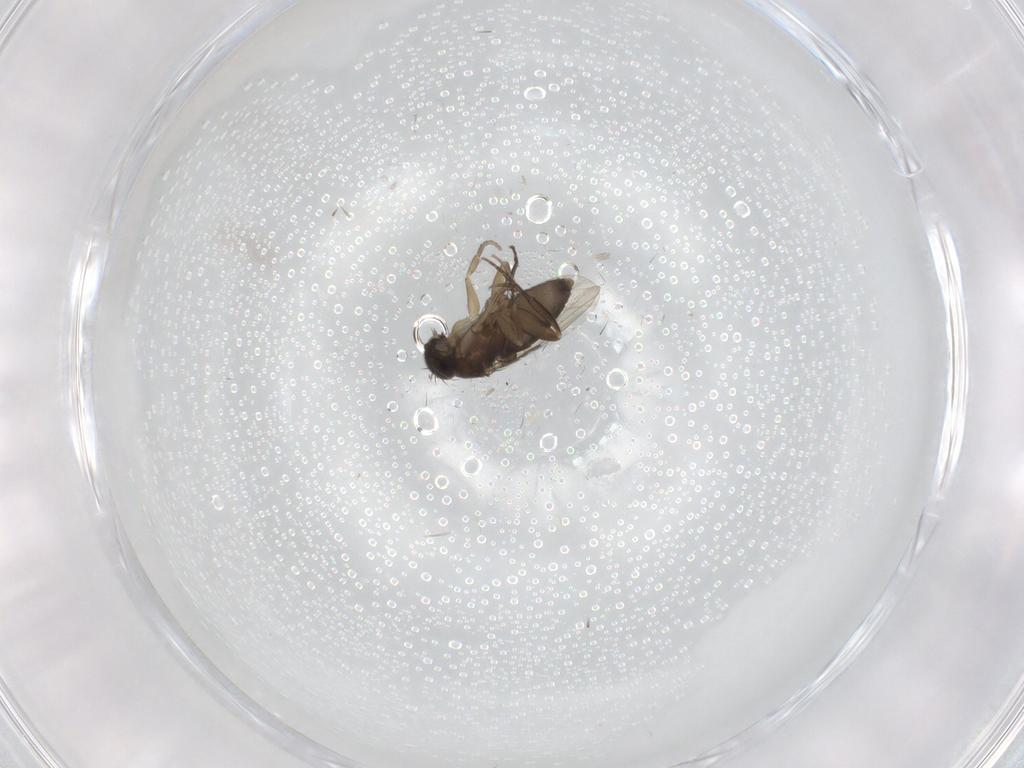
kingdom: Animalia
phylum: Arthropoda
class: Insecta
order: Diptera
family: Phoridae
